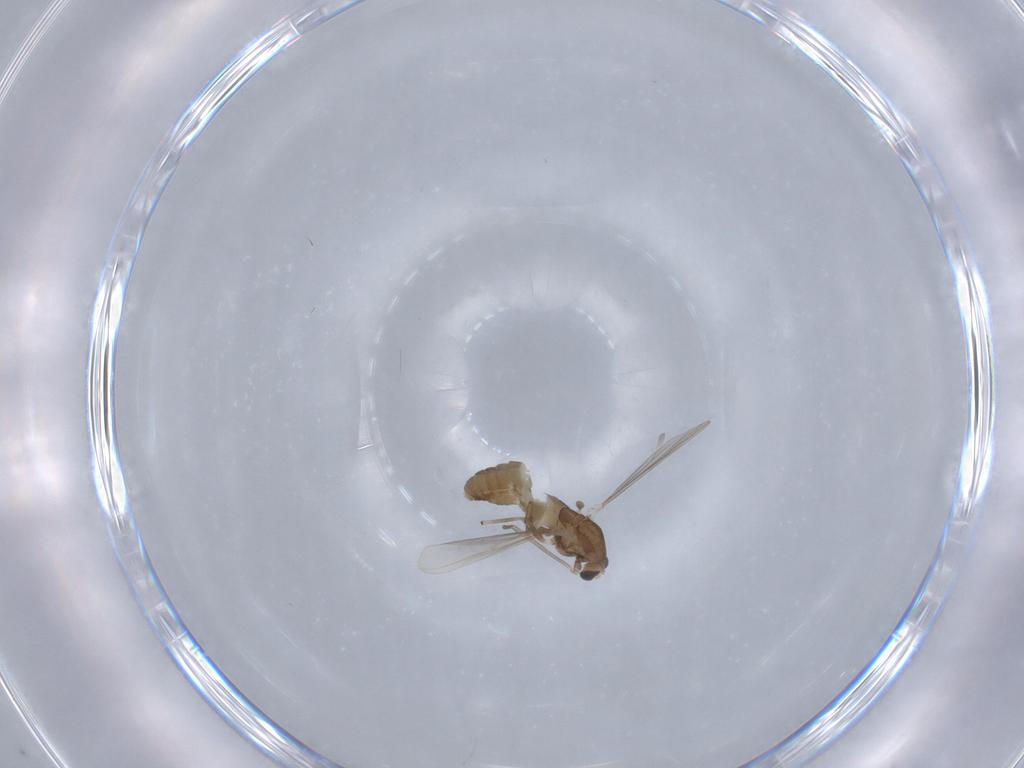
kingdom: Animalia
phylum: Arthropoda
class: Insecta
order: Diptera
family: Chironomidae
